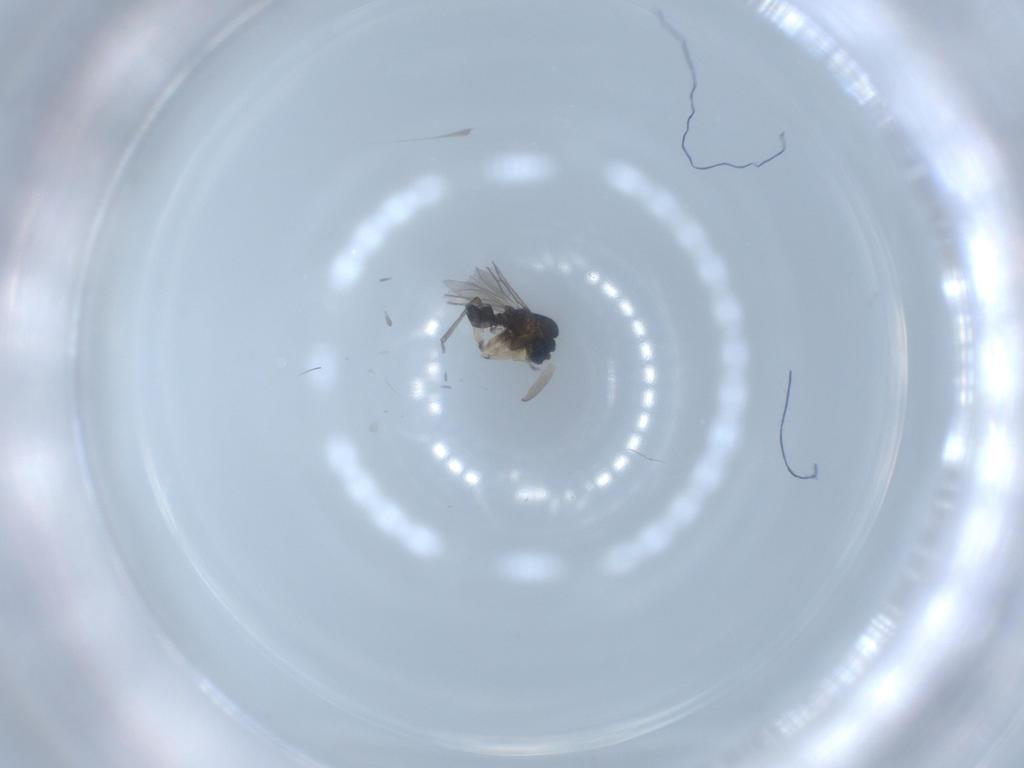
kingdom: Animalia
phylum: Arthropoda
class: Insecta
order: Diptera
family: Sciaridae
